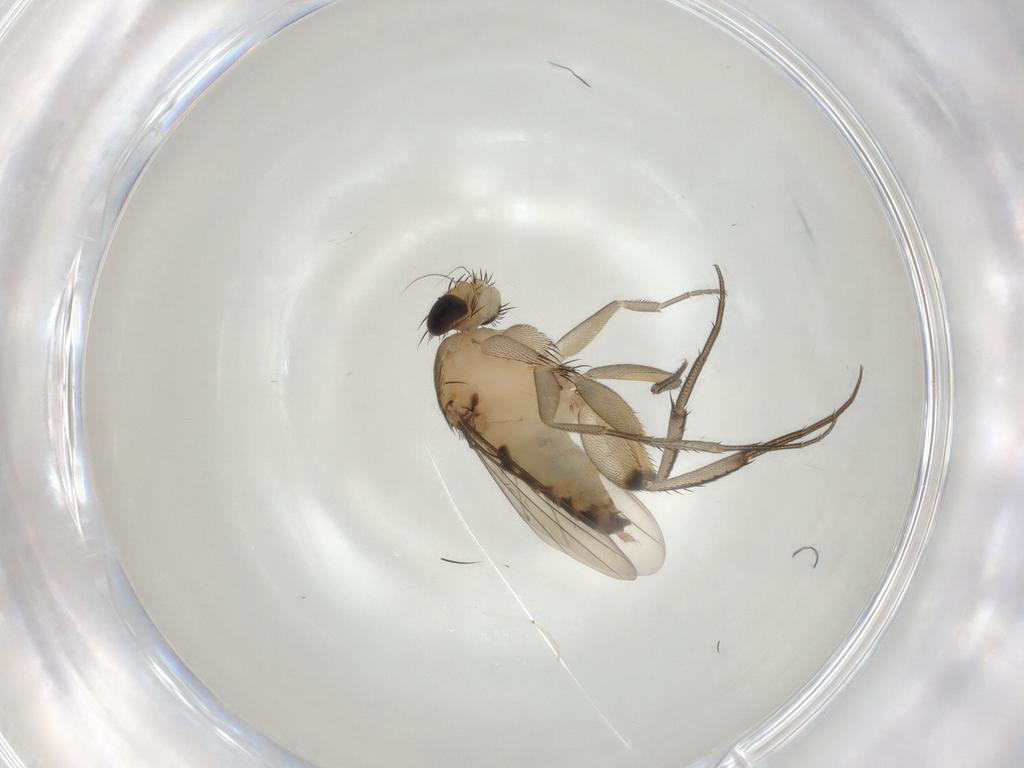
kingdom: Animalia
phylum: Arthropoda
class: Insecta
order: Diptera
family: Phoridae
